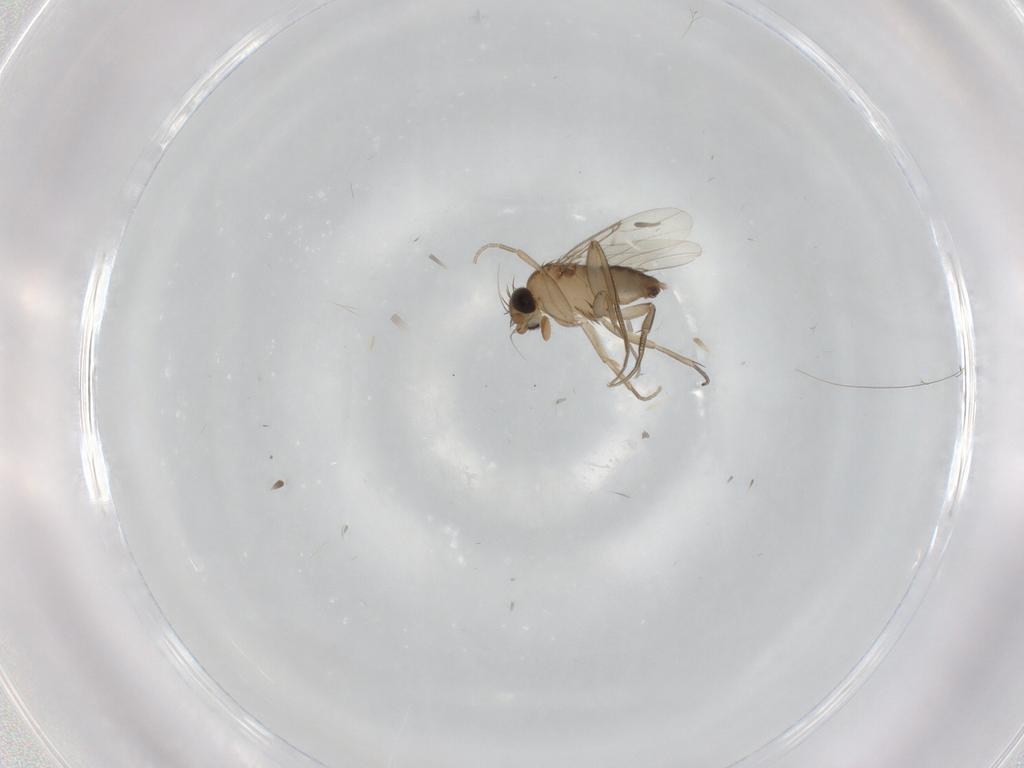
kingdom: Animalia
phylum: Arthropoda
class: Insecta
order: Diptera
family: Phoridae
